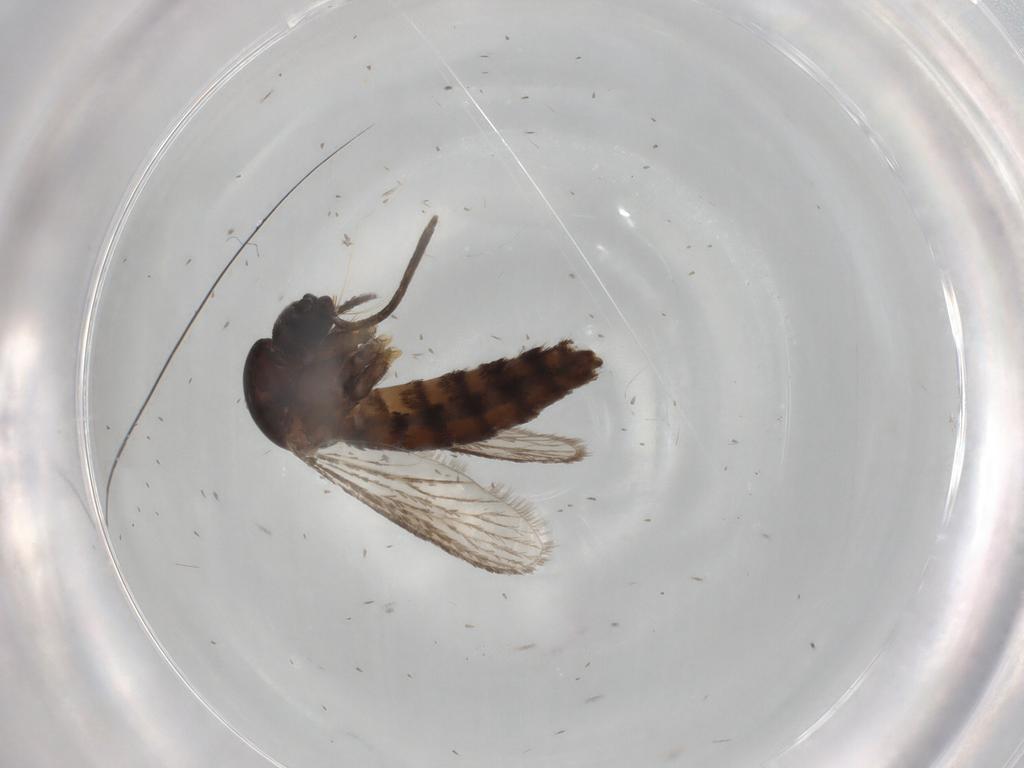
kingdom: Animalia
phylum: Arthropoda
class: Insecta
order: Diptera
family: Culicidae
